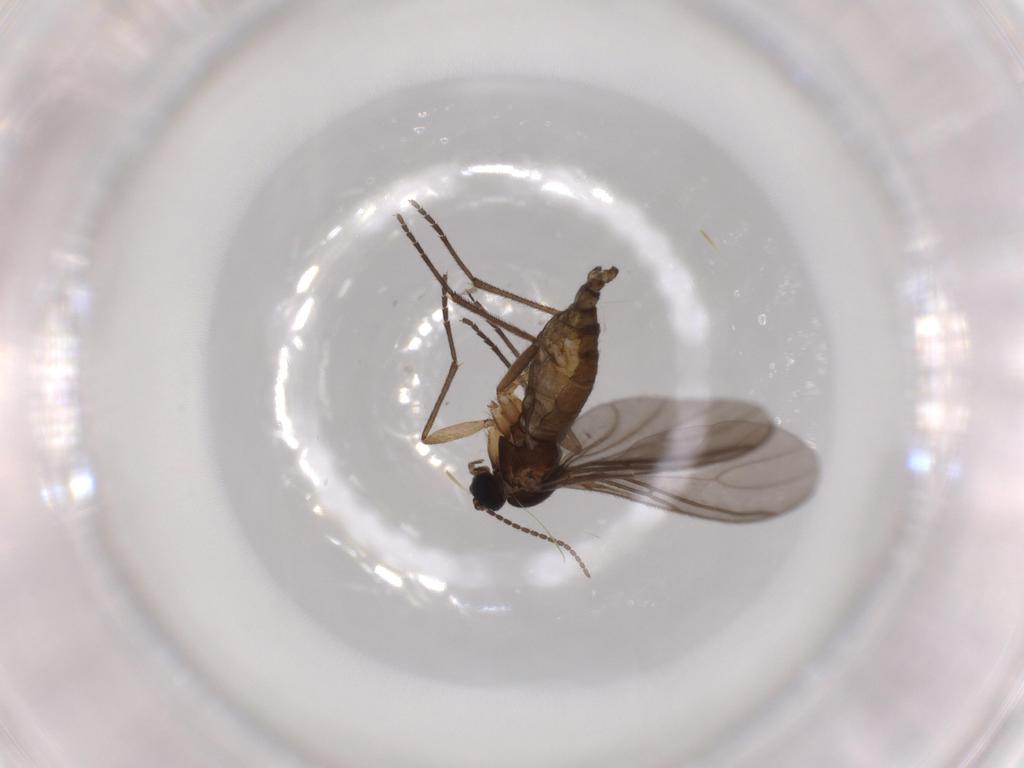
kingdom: Animalia
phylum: Arthropoda
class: Insecta
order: Diptera
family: Sciaridae
